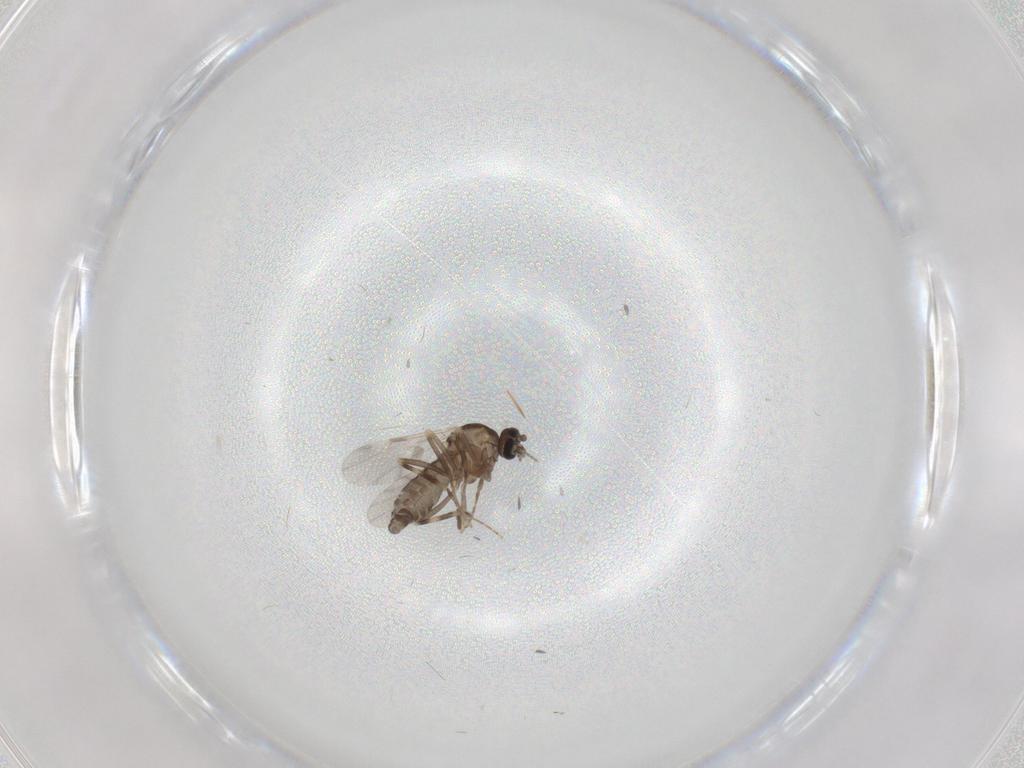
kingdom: Animalia
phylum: Arthropoda
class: Insecta
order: Diptera
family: Ceratopogonidae
